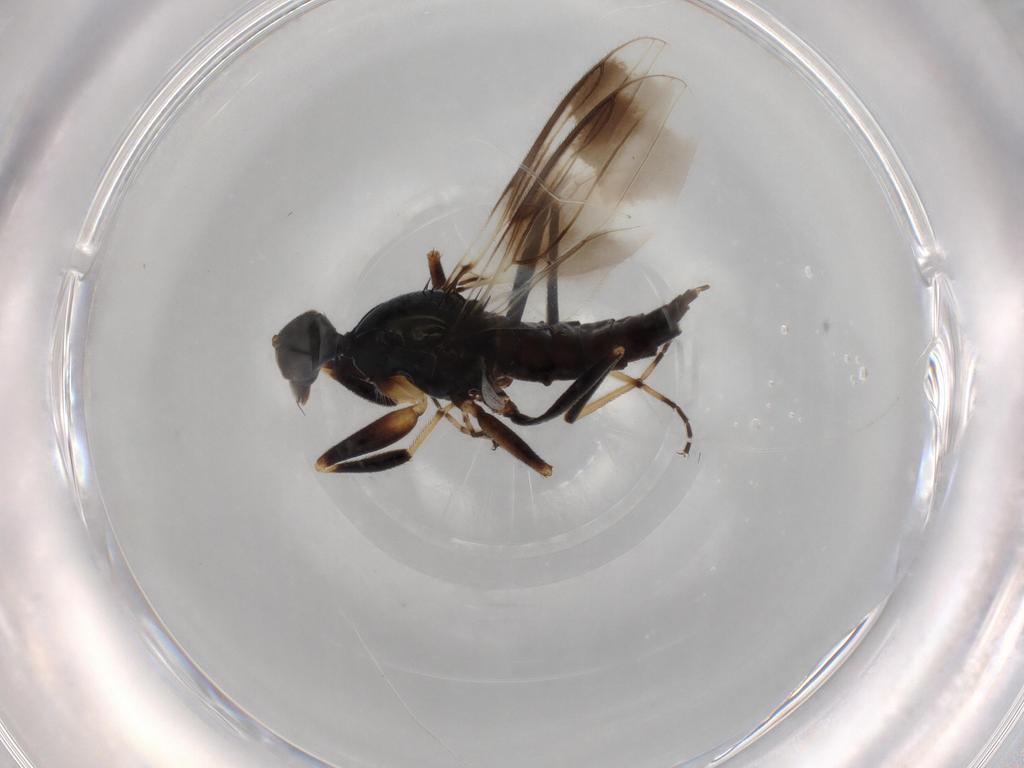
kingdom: Animalia
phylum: Arthropoda
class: Insecta
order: Diptera
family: Hybotidae
